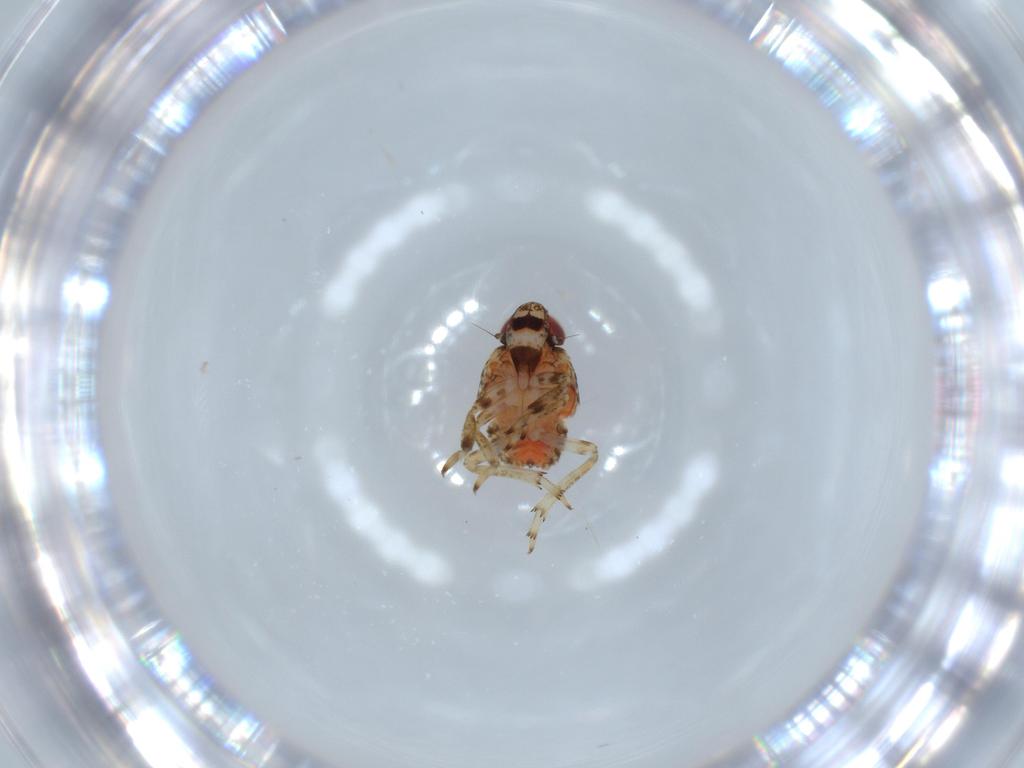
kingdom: Animalia
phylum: Arthropoda
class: Insecta
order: Hemiptera
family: Issidae
